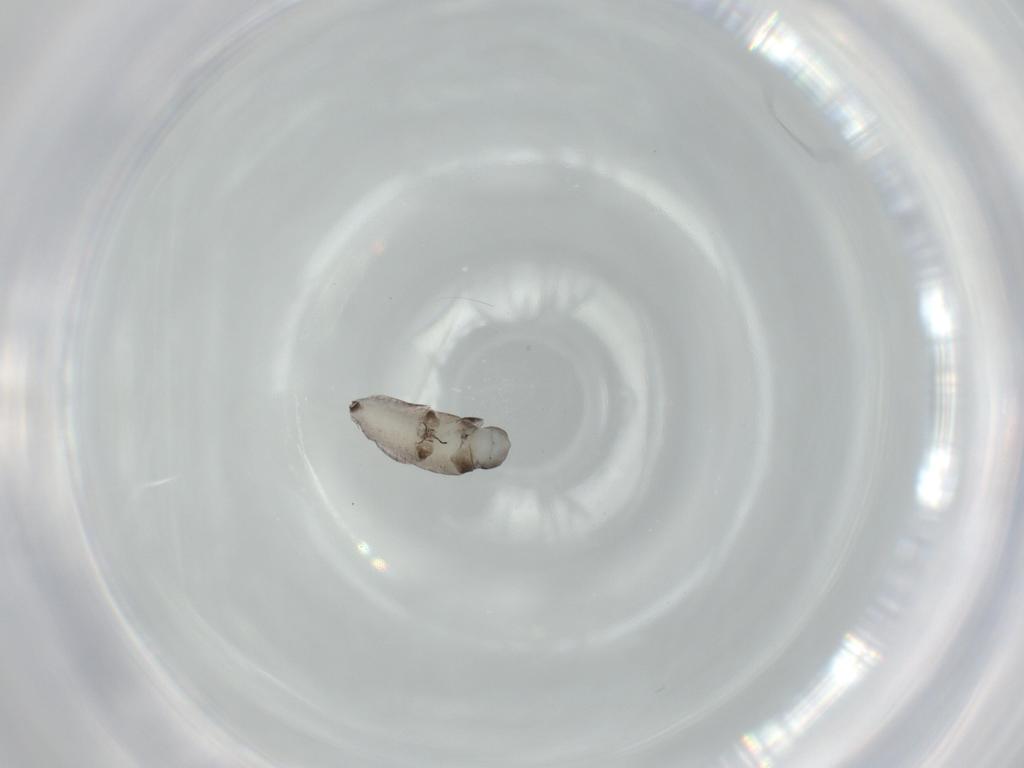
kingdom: Animalia
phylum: Arthropoda
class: Insecta
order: Hymenoptera
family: Rhopalosomatidae
